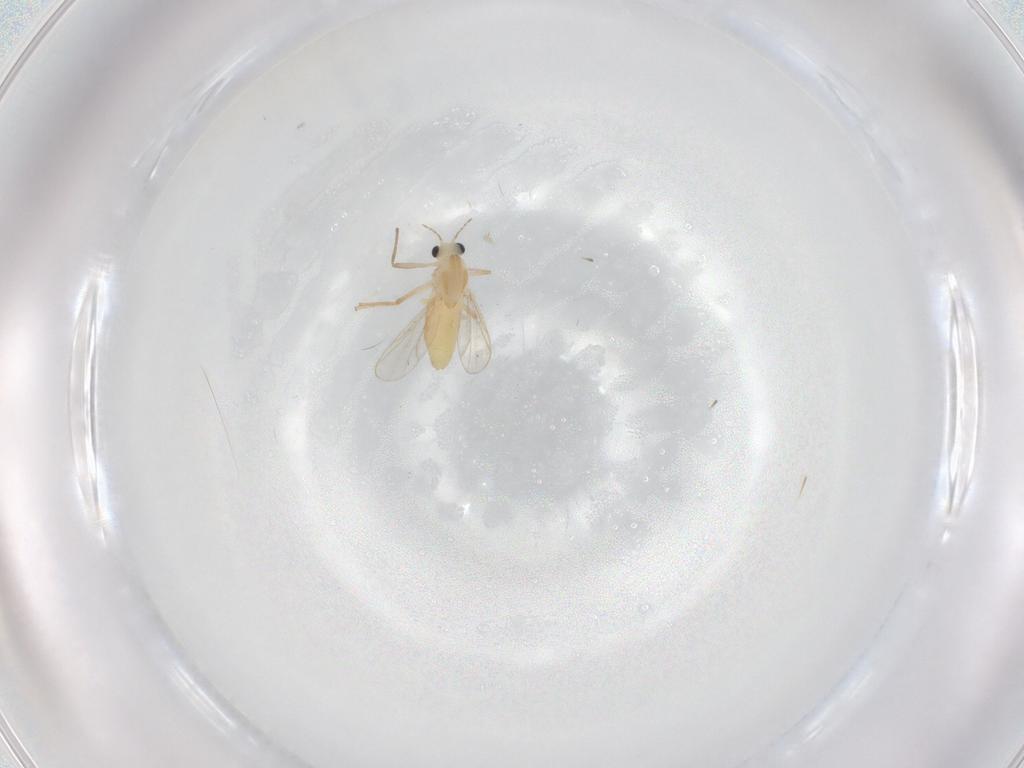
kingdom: Animalia
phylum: Arthropoda
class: Insecta
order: Diptera
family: Chironomidae
